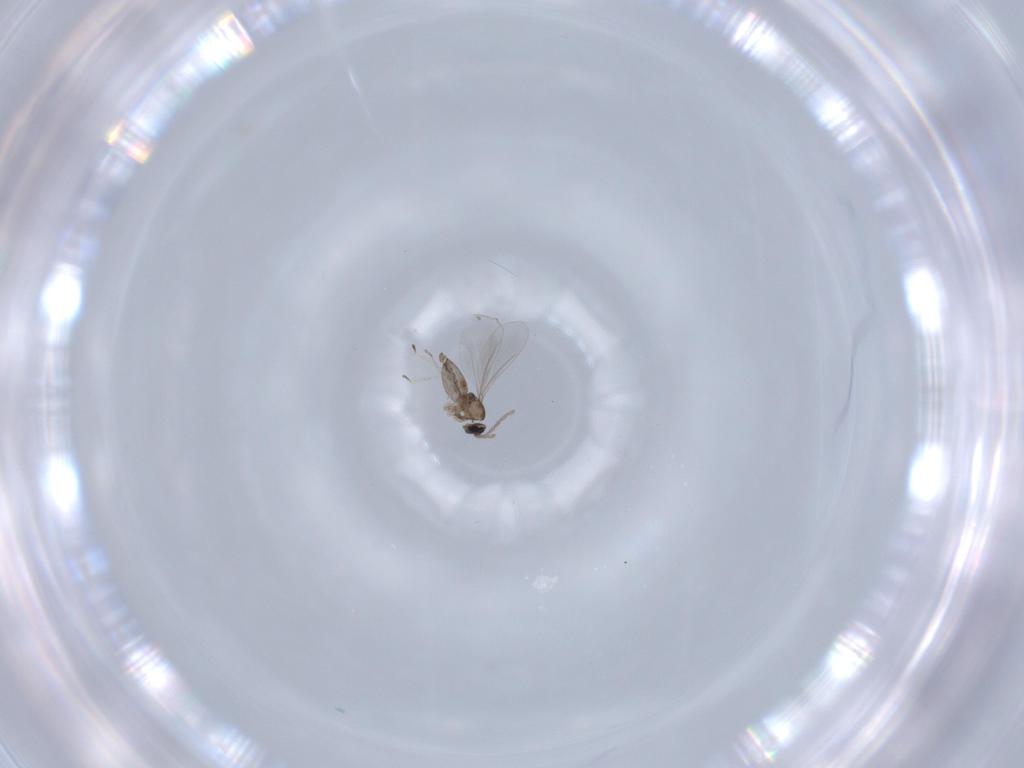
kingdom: Animalia
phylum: Arthropoda
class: Insecta
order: Diptera
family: Cecidomyiidae
